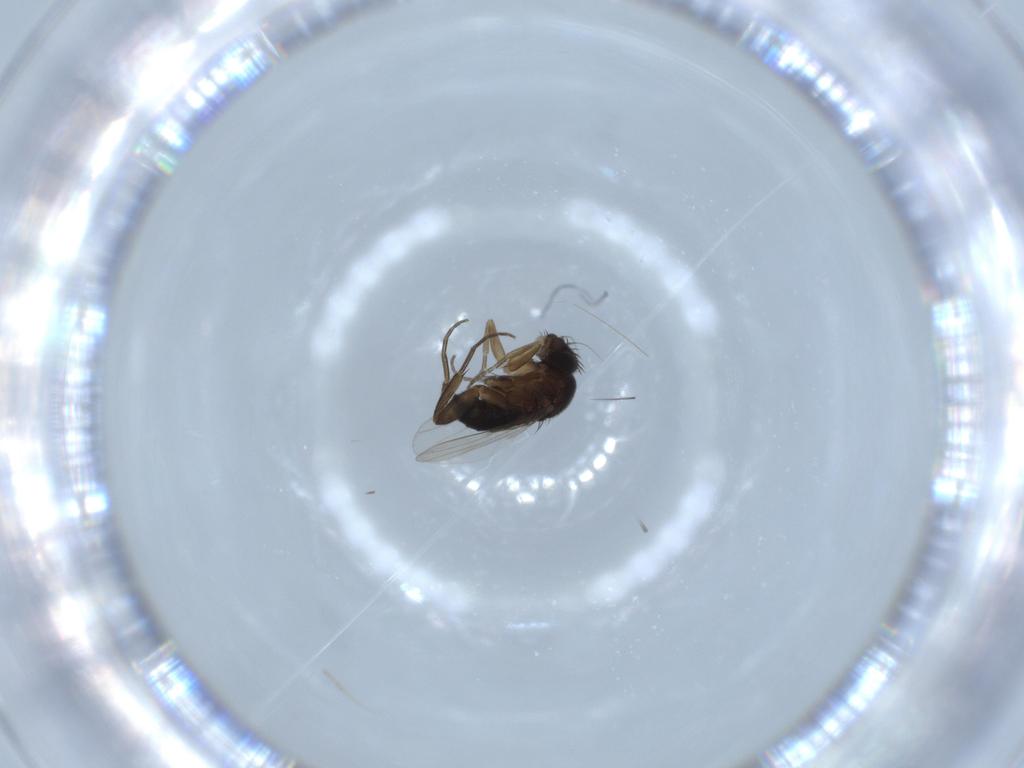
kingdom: Animalia
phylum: Arthropoda
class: Insecta
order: Diptera
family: Phoridae
